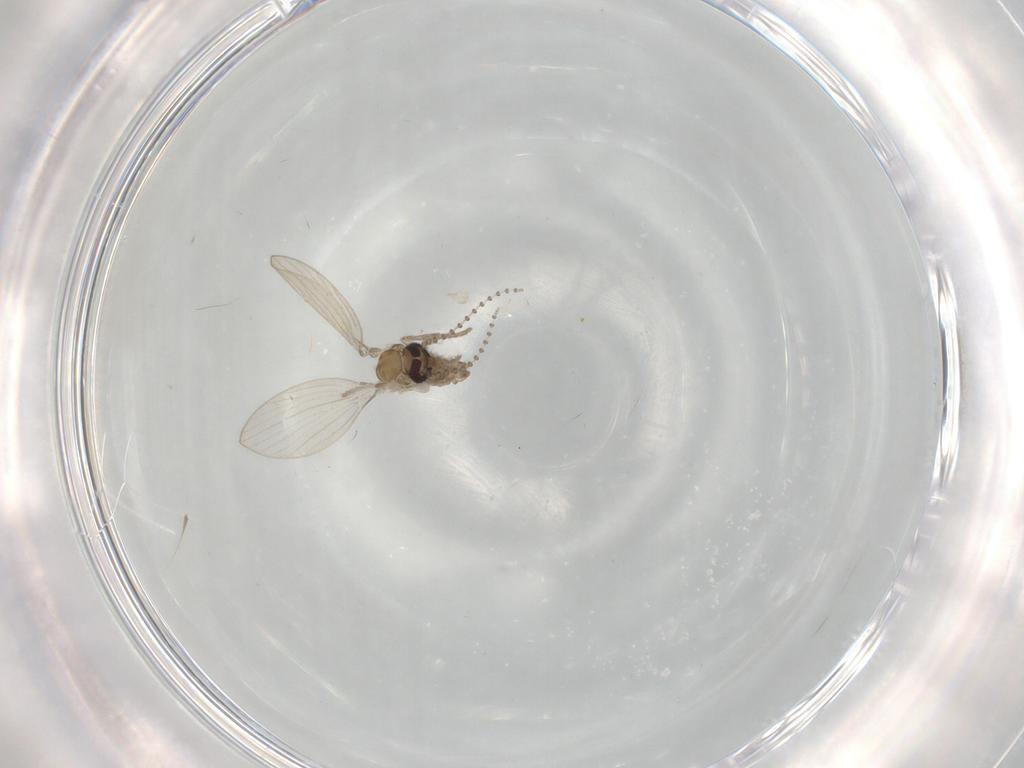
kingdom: Animalia
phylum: Arthropoda
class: Insecta
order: Diptera
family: Psychodidae
